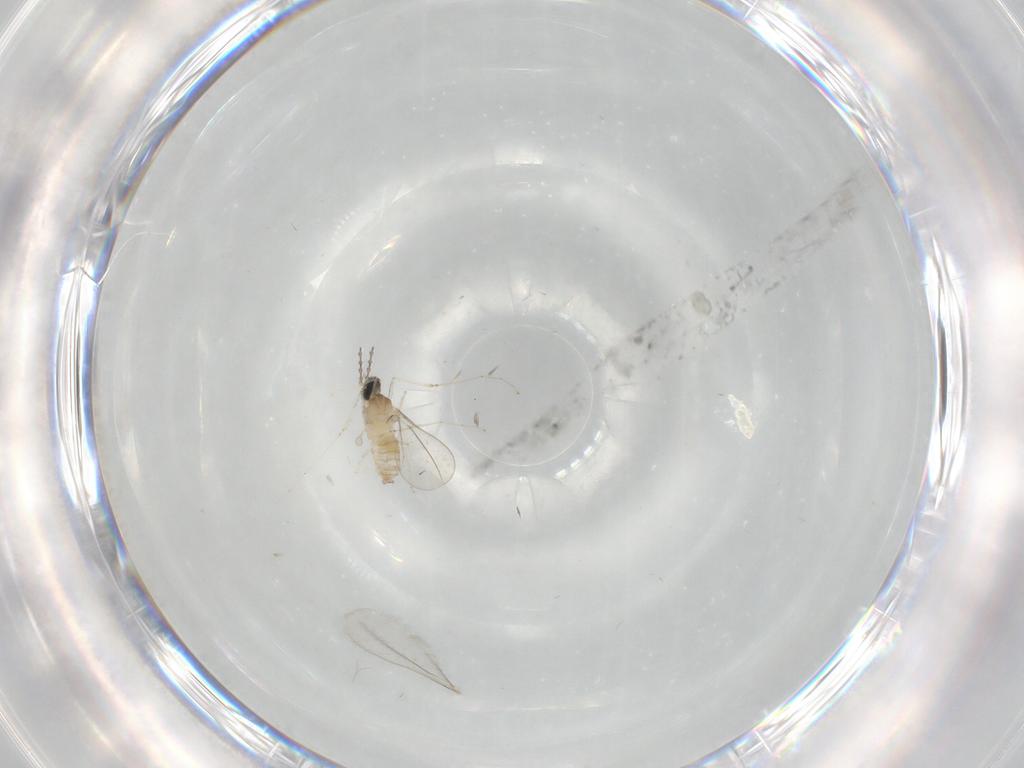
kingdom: Animalia
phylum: Arthropoda
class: Insecta
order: Diptera
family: Cecidomyiidae
